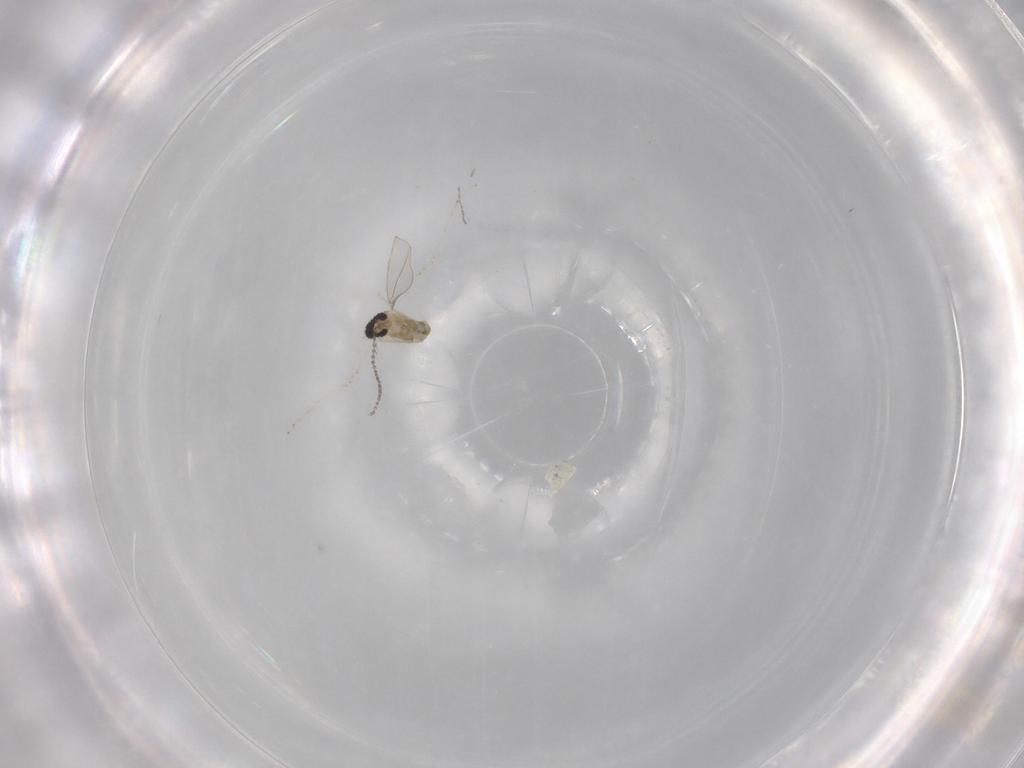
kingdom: Animalia
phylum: Arthropoda
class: Insecta
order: Diptera
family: Cecidomyiidae
